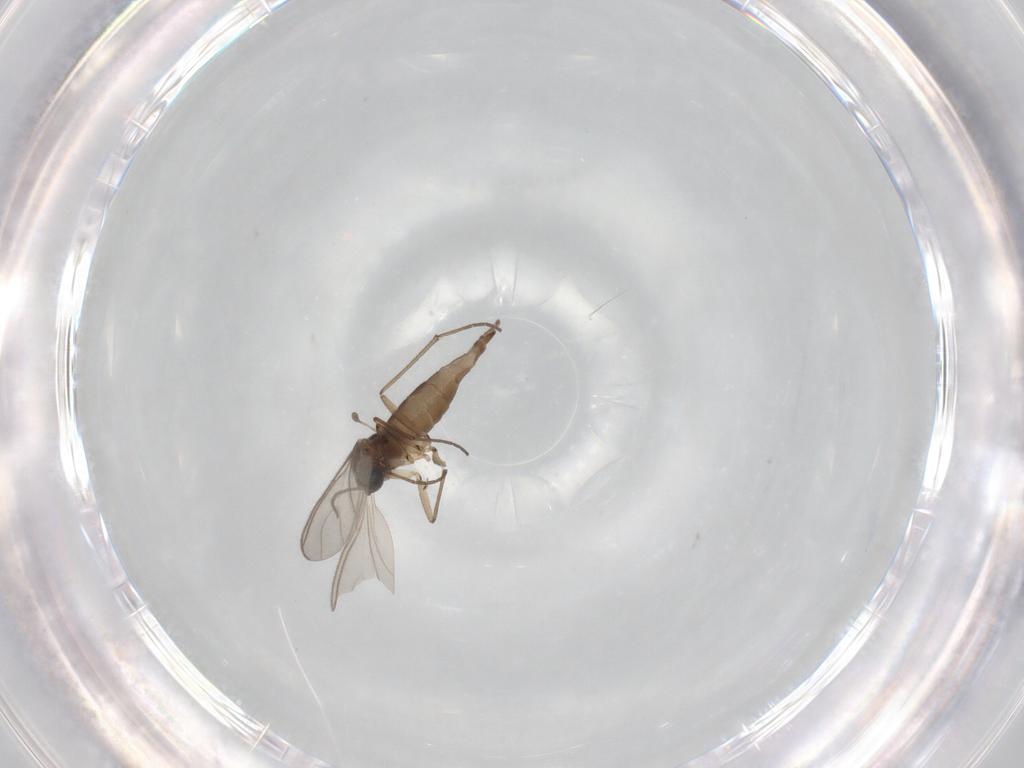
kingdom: Animalia
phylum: Arthropoda
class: Insecta
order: Diptera
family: Sciaridae
